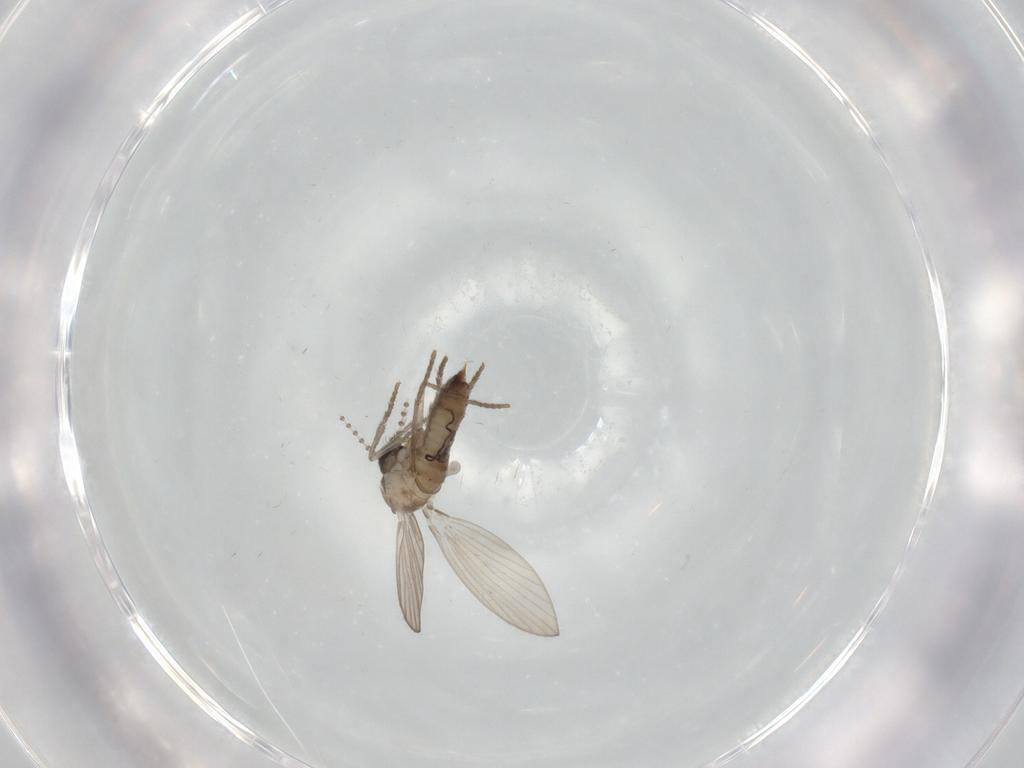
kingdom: Animalia
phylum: Arthropoda
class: Insecta
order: Diptera
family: Psychodidae
